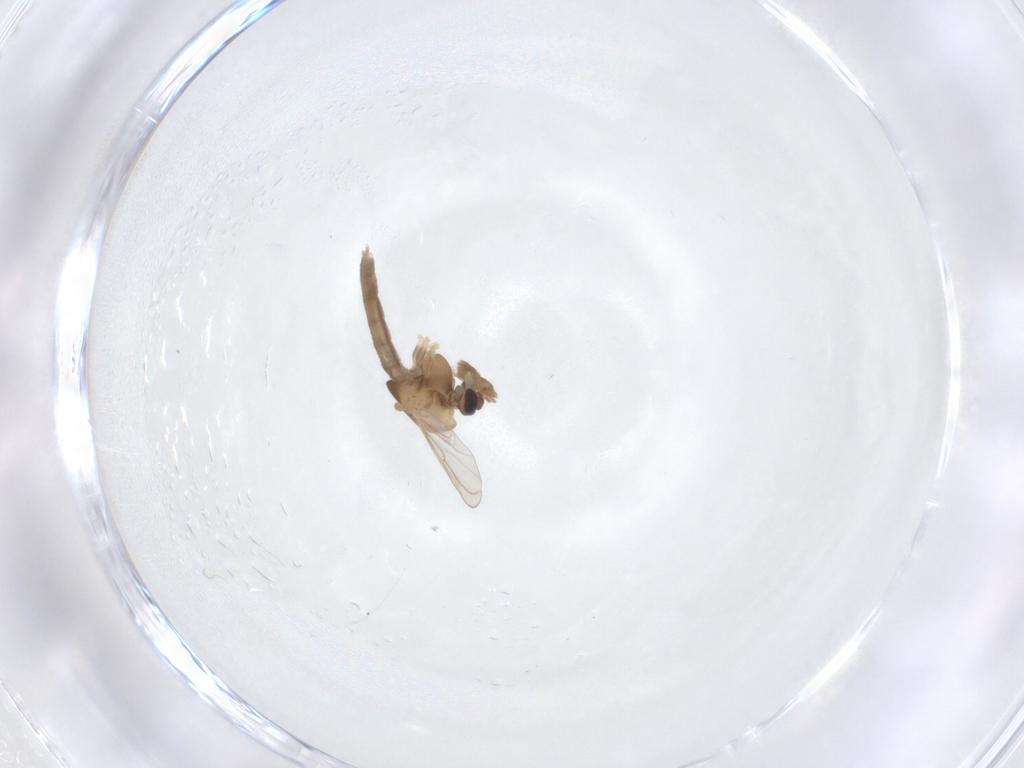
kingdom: Animalia
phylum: Arthropoda
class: Insecta
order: Diptera
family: Chironomidae
